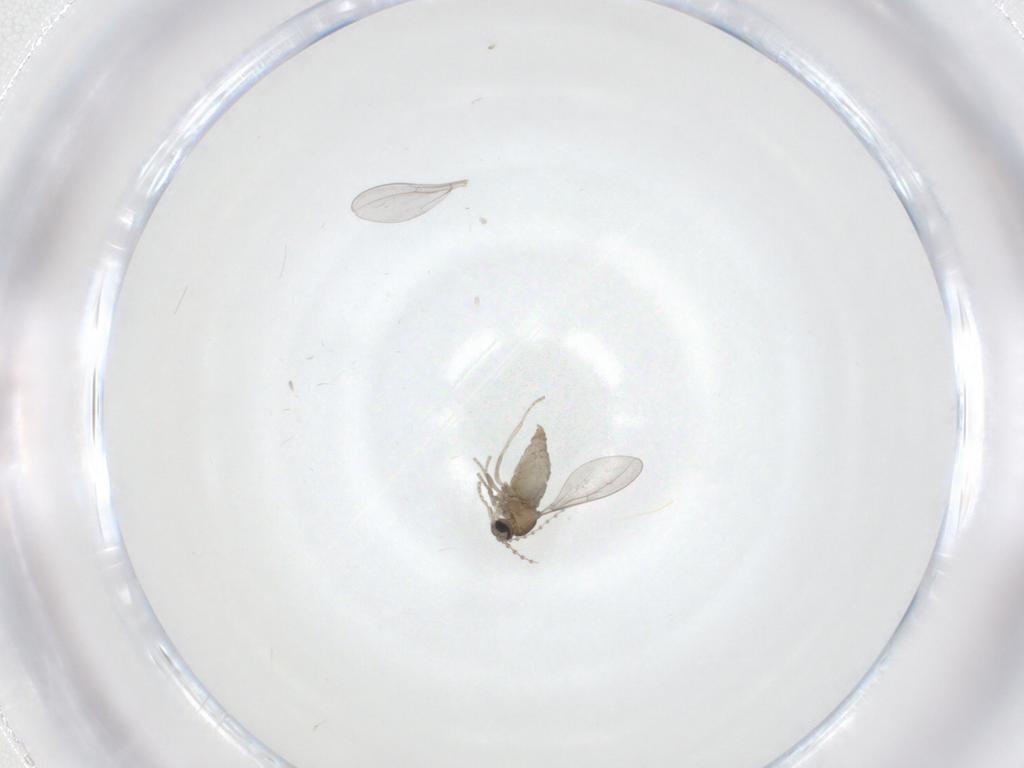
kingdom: Animalia
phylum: Arthropoda
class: Insecta
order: Diptera
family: Cecidomyiidae
